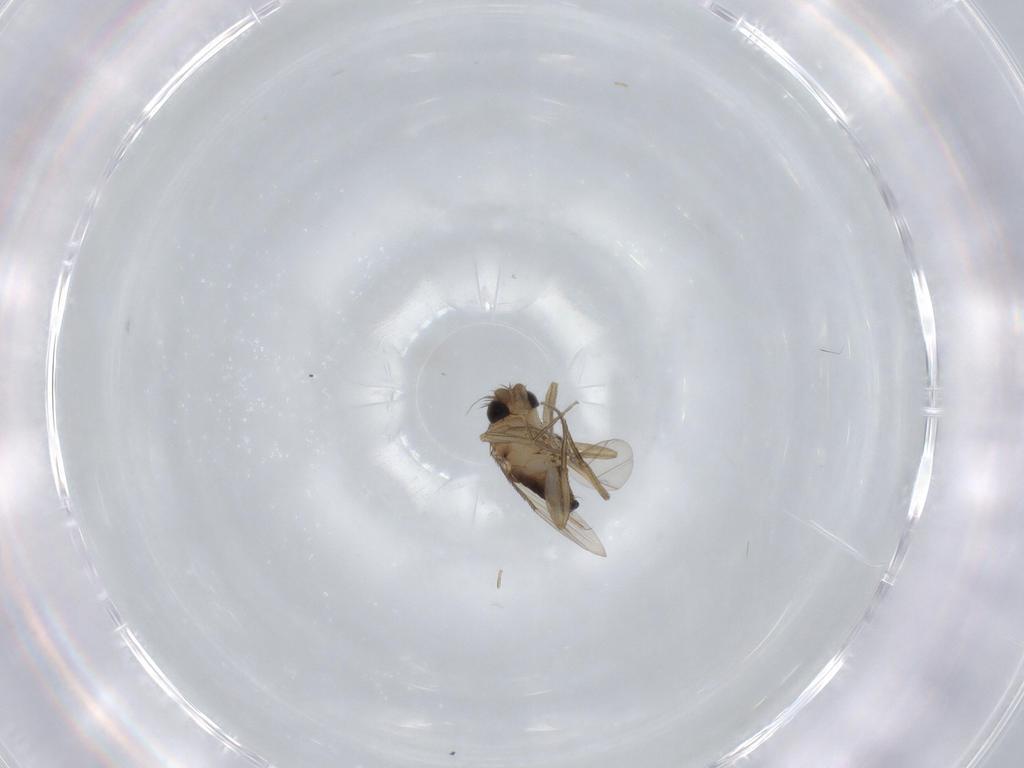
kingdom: Animalia
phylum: Arthropoda
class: Insecta
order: Diptera
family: Phoridae
